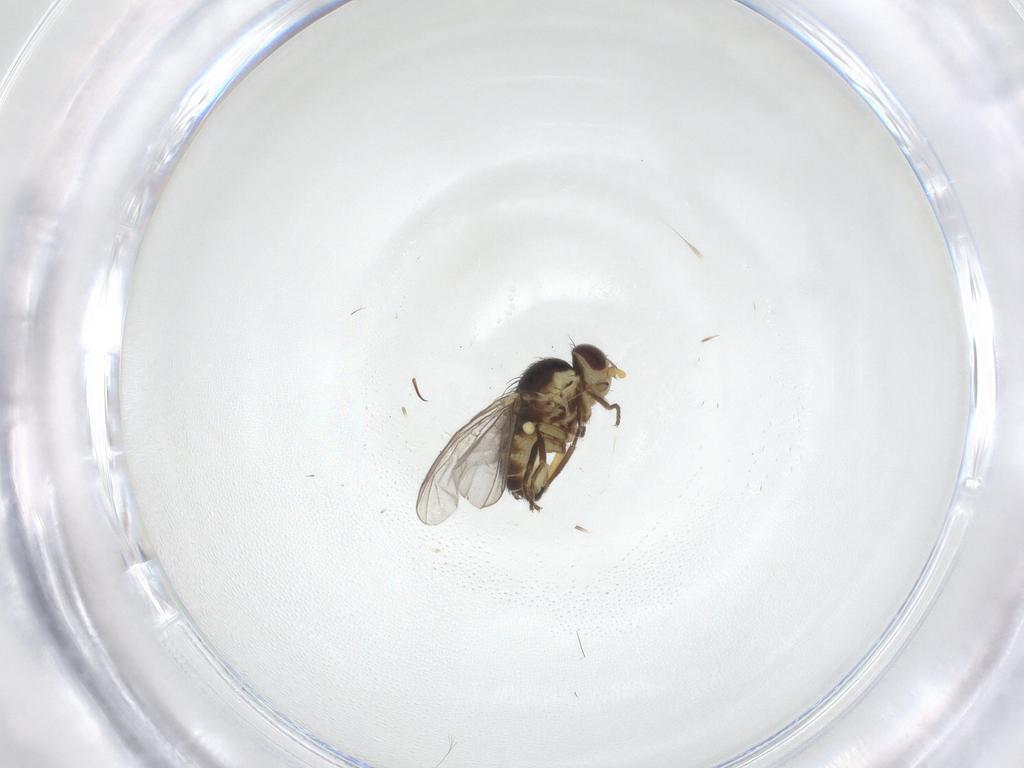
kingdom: Animalia
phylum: Arthropoda
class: Insecta
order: Diptera
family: Agromyzidae
